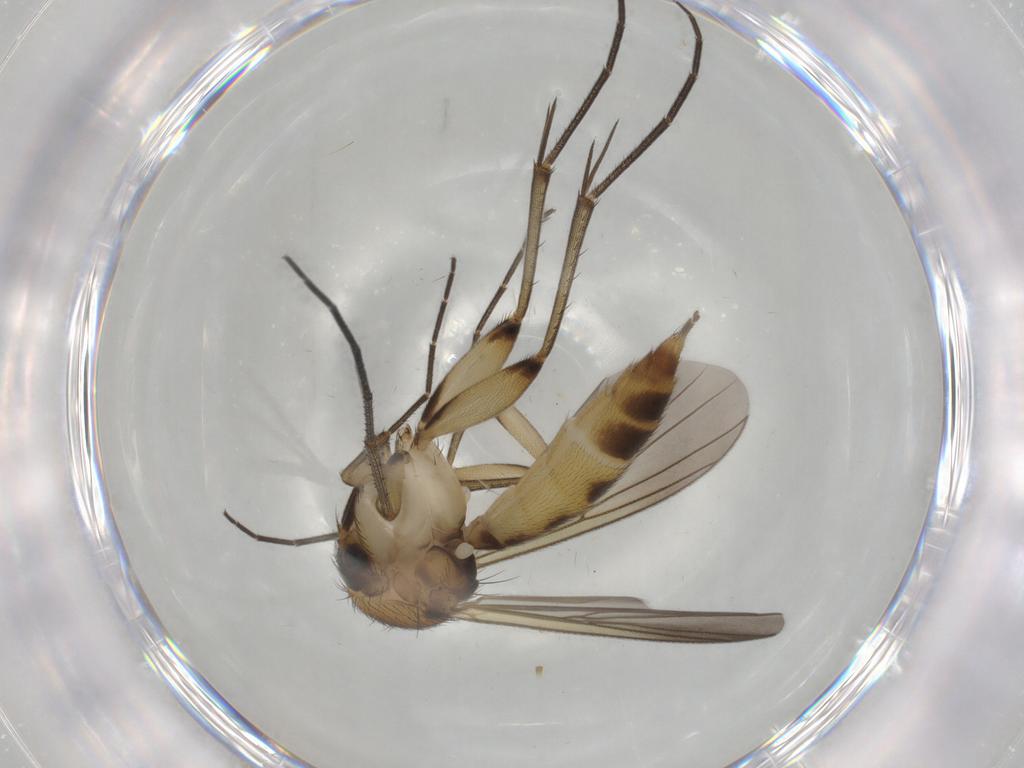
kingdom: Animalia
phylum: Arthropoda
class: Insecta
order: Diptera
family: Mycetophilidae
